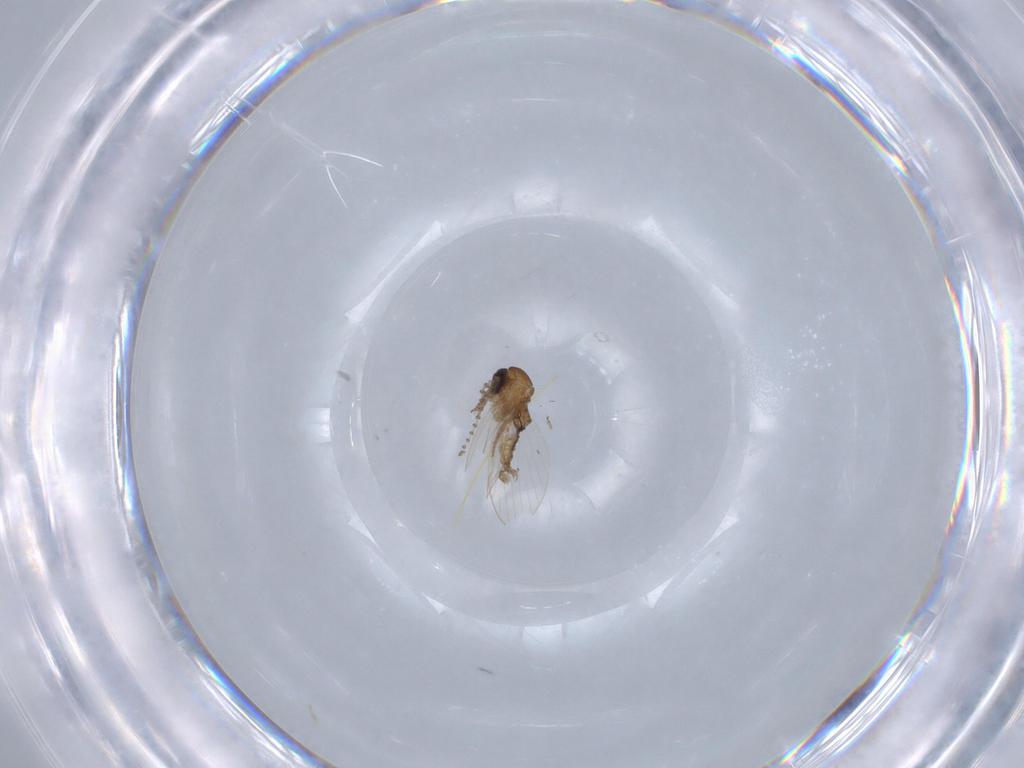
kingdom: Animalia
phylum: Arthropoda
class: Insecta
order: Diptera
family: Psychodidae
